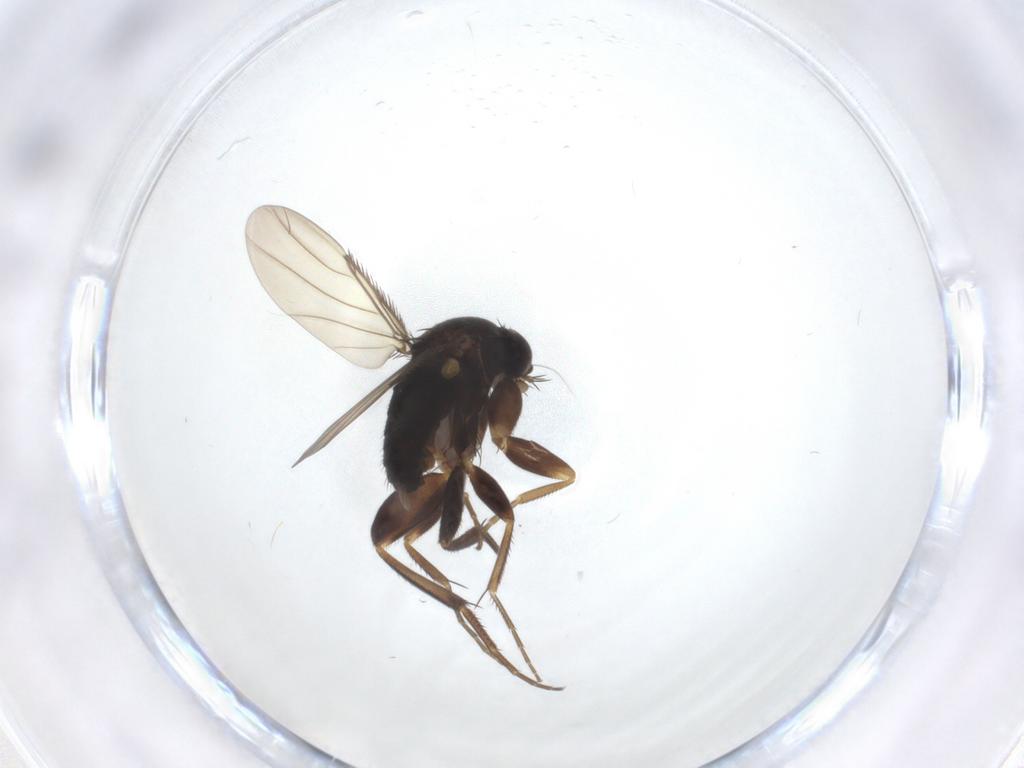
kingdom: Animalia
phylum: Arthropoda
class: Insecta
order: Diptera
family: Phoridae
